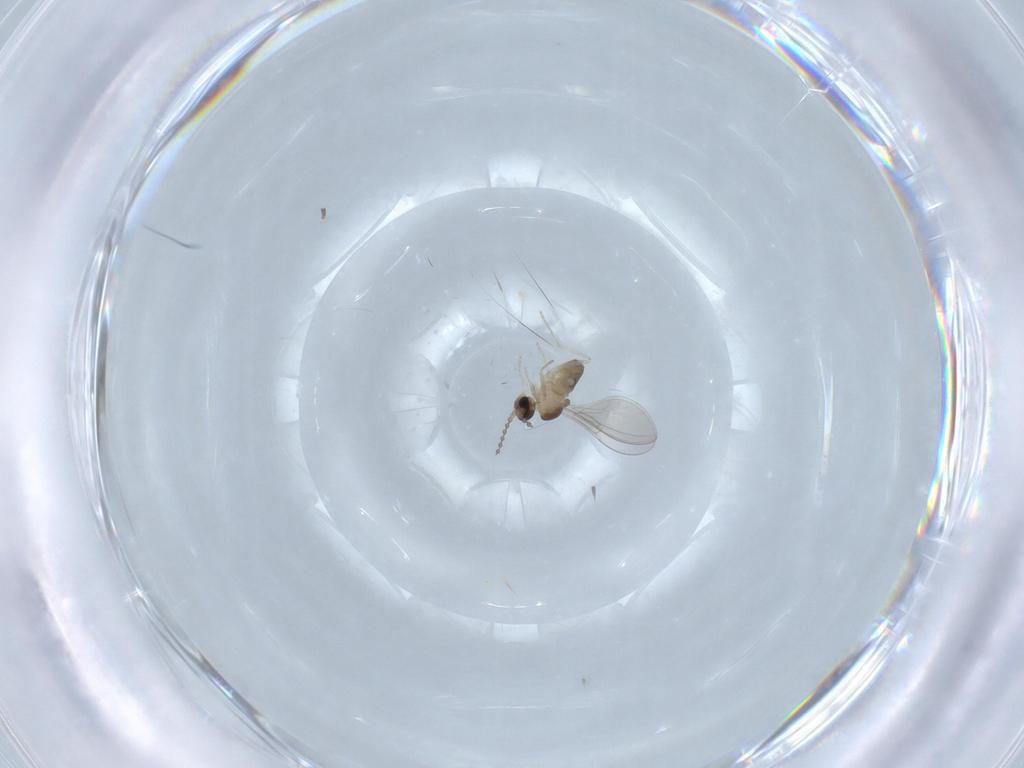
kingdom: Animalia
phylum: Arthropoda
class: Insecta
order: Diptera
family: Cecidomyiidae
